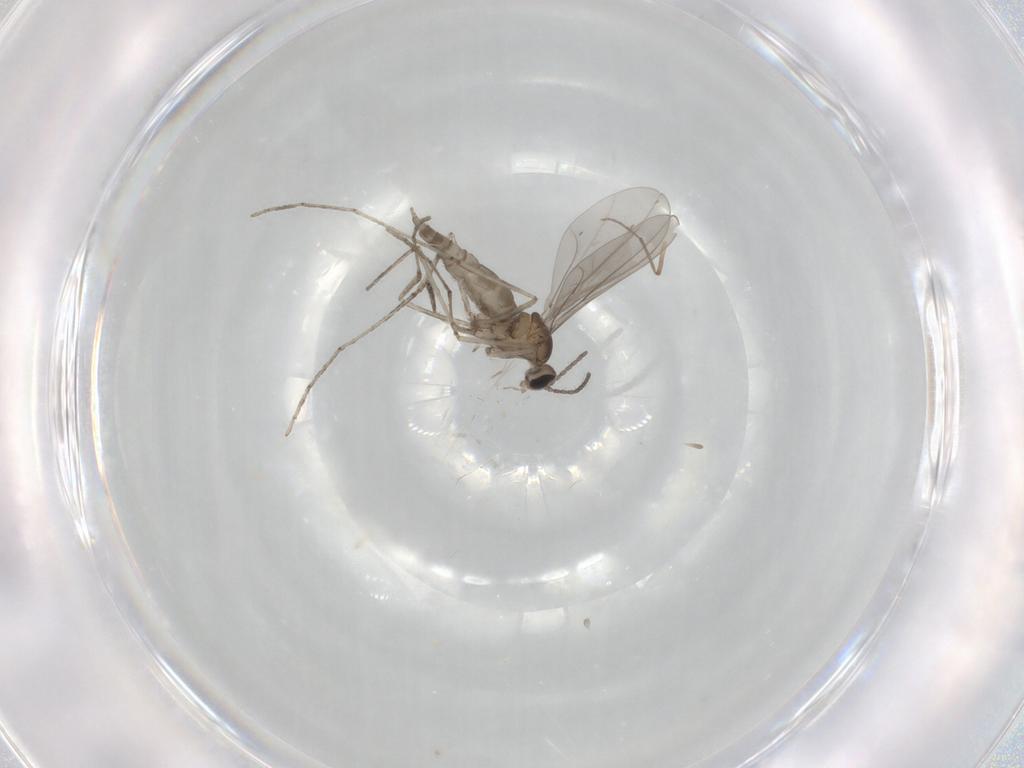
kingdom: Animalia
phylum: Arthropoda
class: Insecta
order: Diptera
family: Cecidomyiidae
